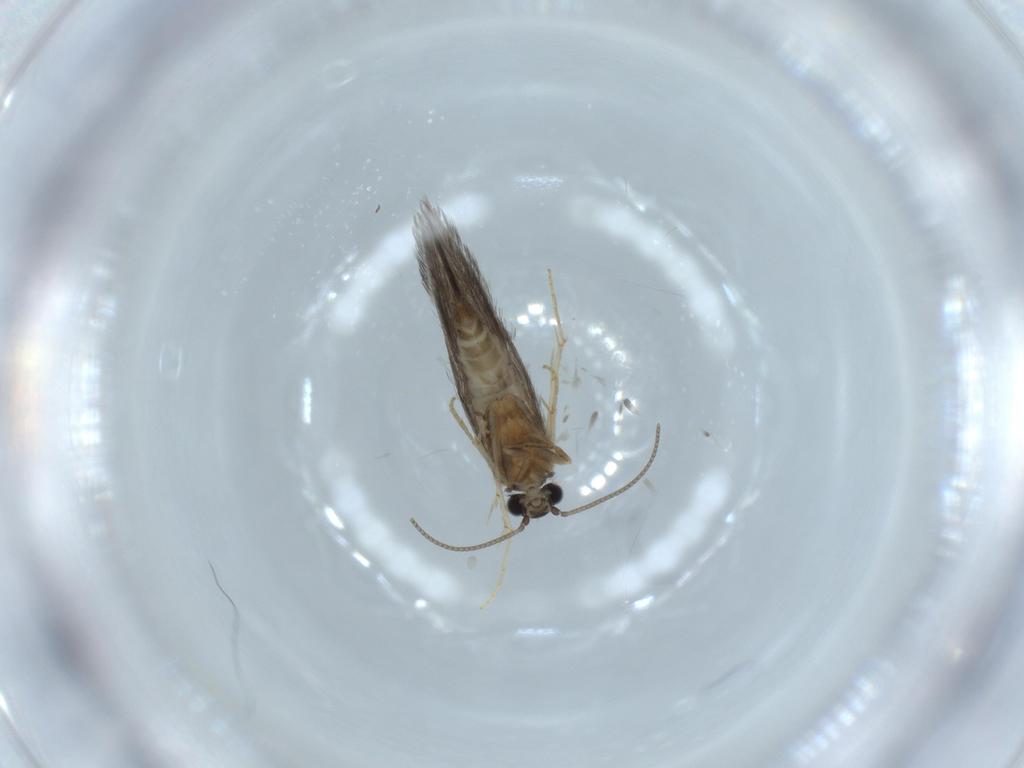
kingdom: Animalia
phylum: Arthropoda
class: Insecta
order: Trichoptera
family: Hydroptilidae
